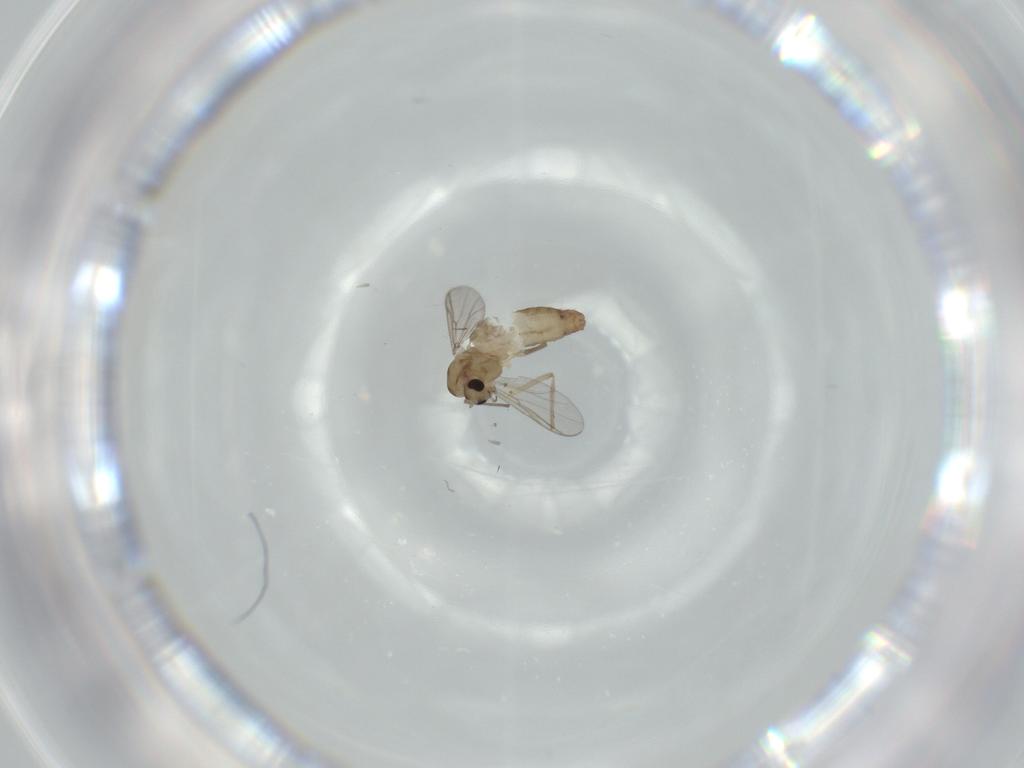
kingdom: Animalia
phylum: Arthropoda
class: Insecta
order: Diptera
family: Chironomidae
